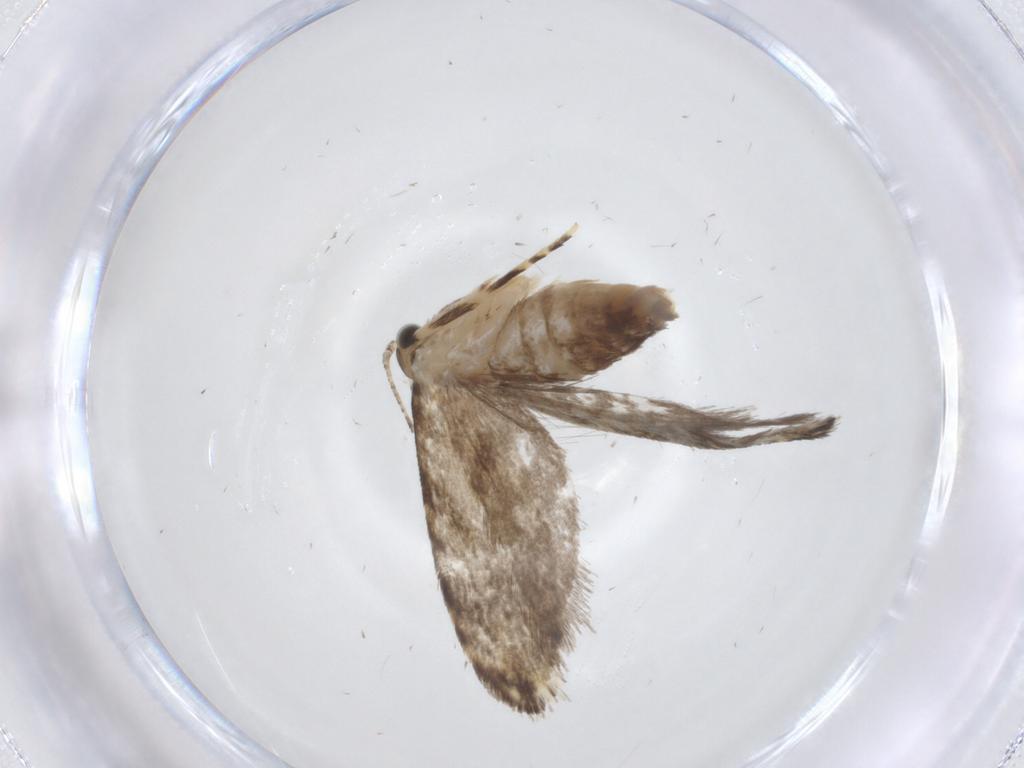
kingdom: Animalia
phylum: Arthropoda
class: Insecta
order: Lepidoptera
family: Tineidae
